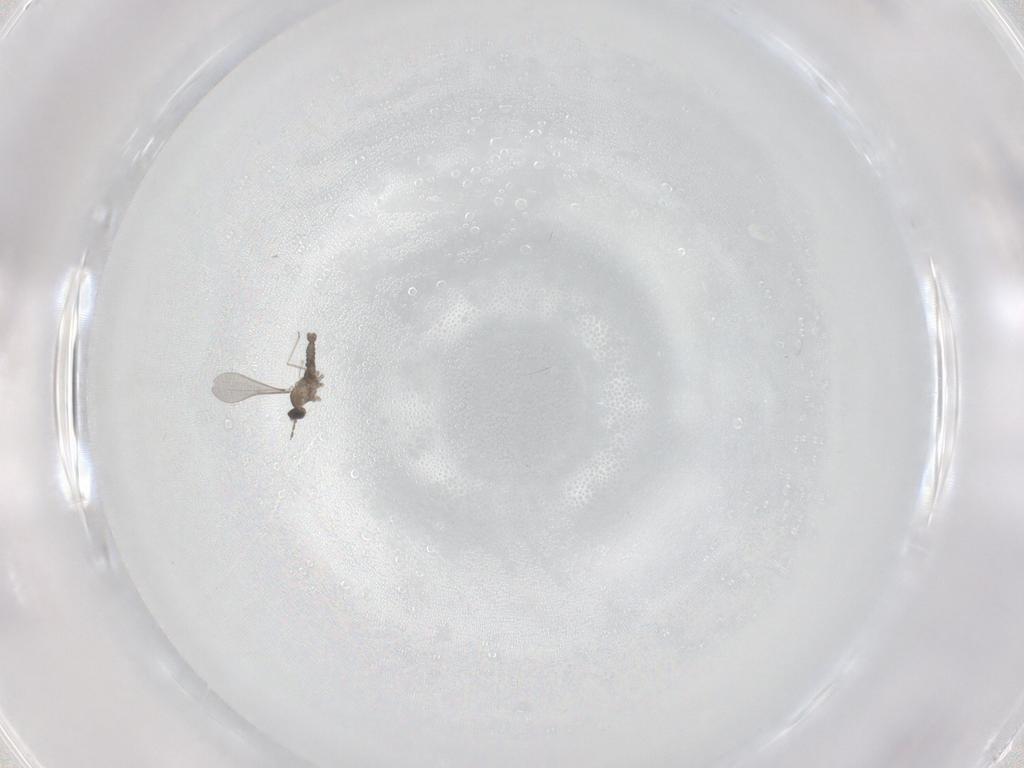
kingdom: Animalia
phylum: Arthropoda
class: Insecta
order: Diptera
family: Cecidomyiidae
